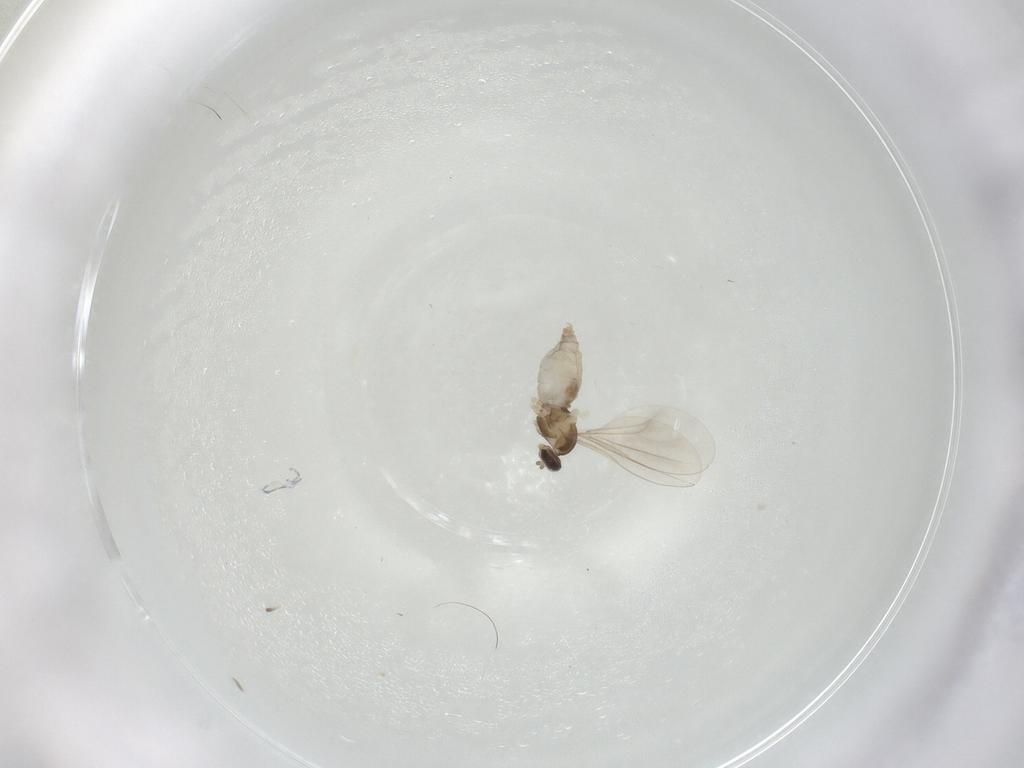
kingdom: Animalia
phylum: Arthropoda
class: Insecta
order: Diptera
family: Cecidomyiidae
